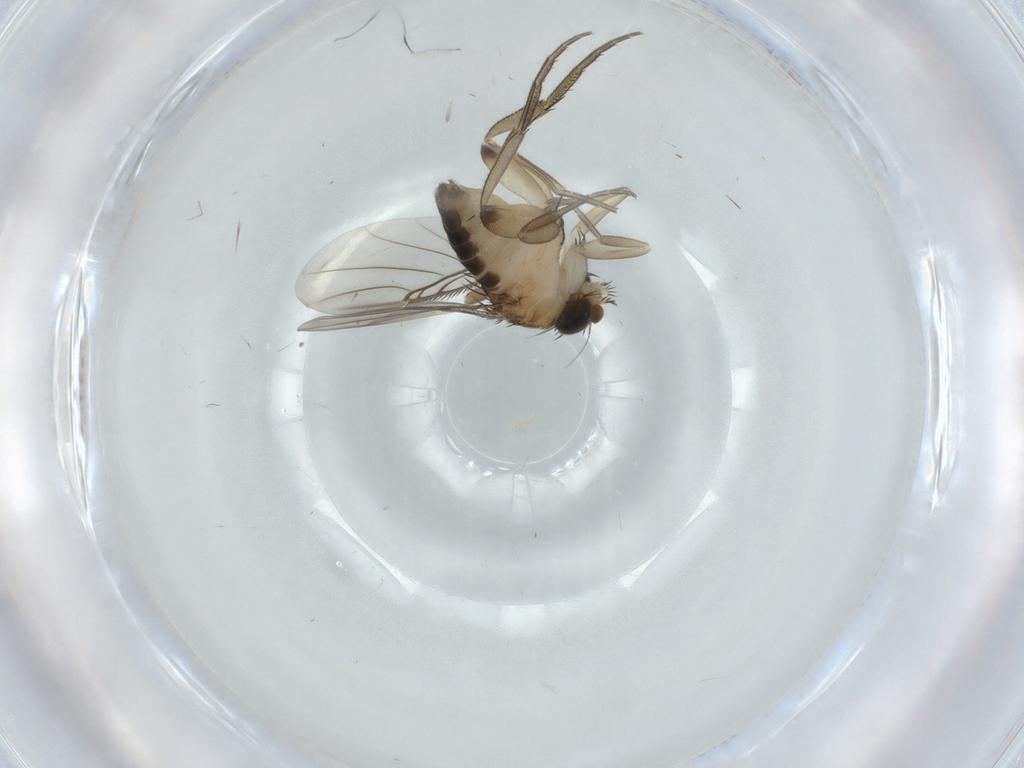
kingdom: Animalia
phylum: Arthropoda
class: Insecta
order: Diptera
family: Phoridae
